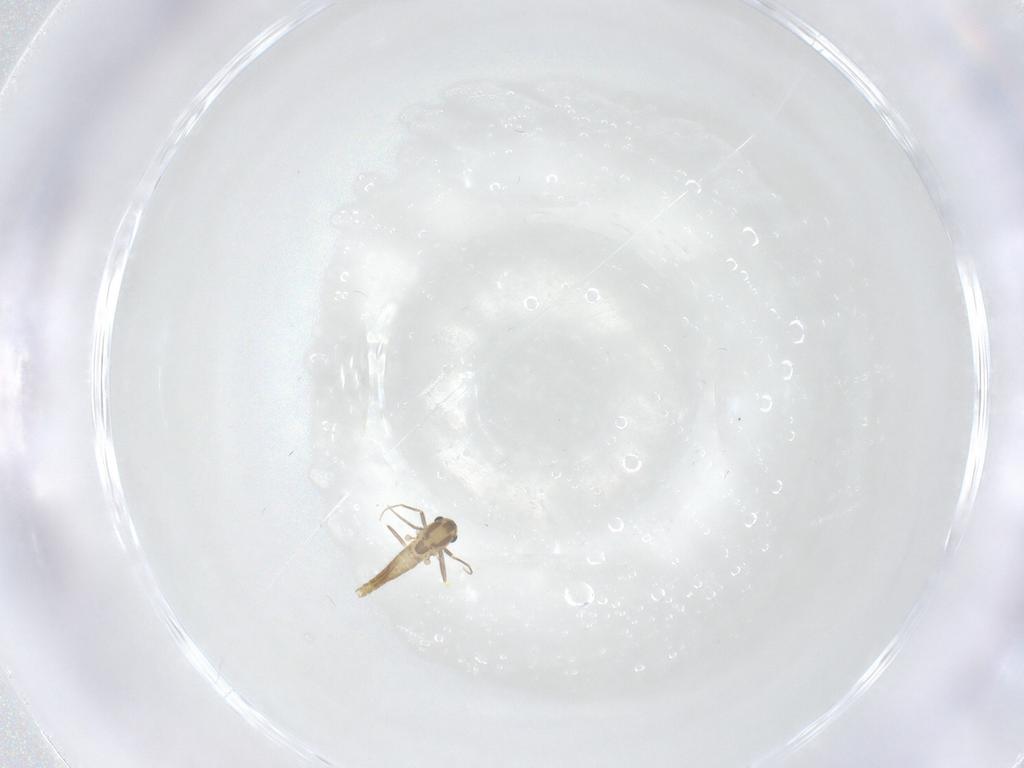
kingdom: Animalia
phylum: Arthropoda
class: Insecta
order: Diptera
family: Chironomidae
